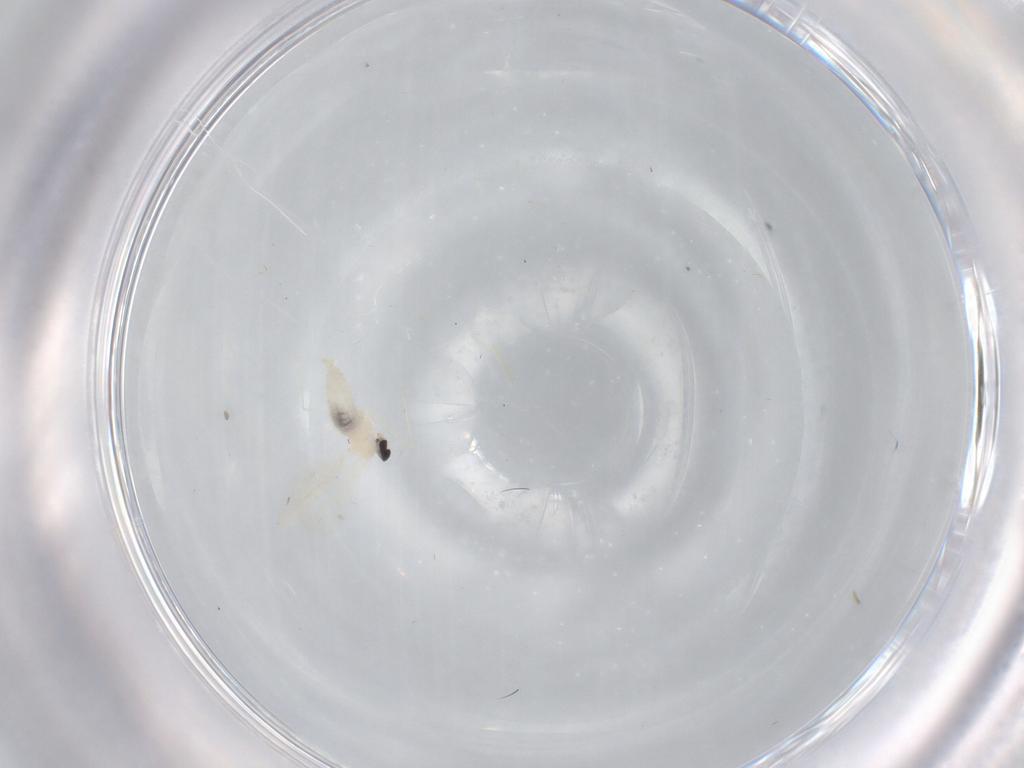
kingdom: Animalia
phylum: Arthropoda
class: Insecta
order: Diptera
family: Cecidomyiidae
